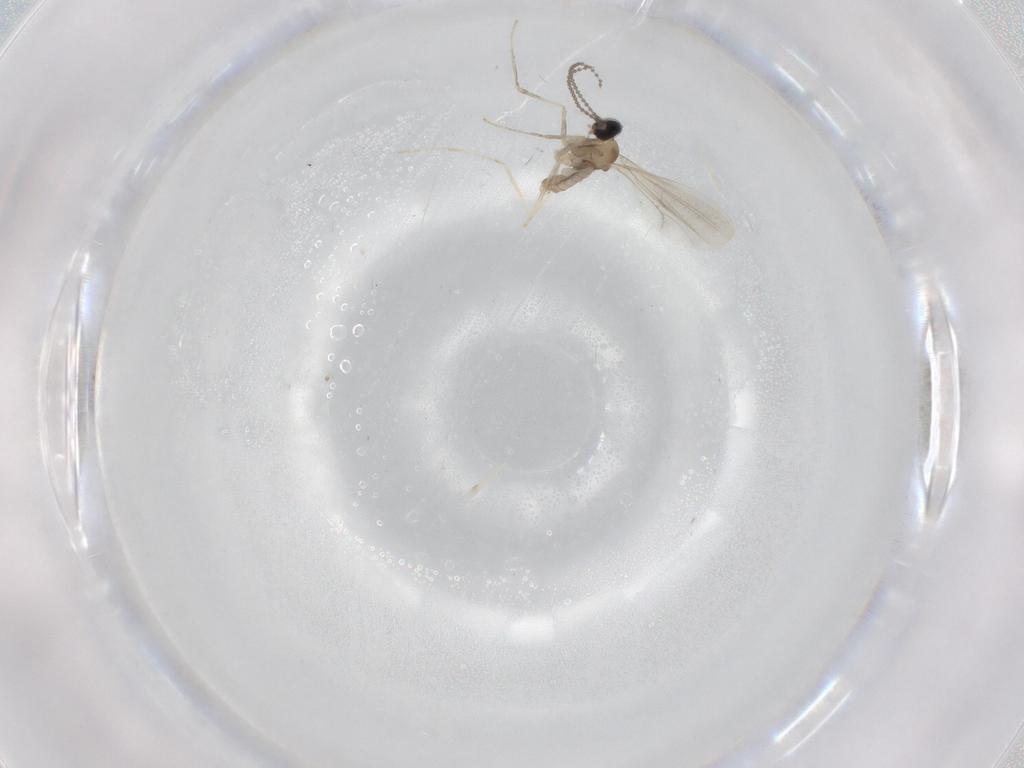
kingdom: Animalia
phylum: Arthropoda
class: Insecta
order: Diptera
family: Cecidomyiidae
